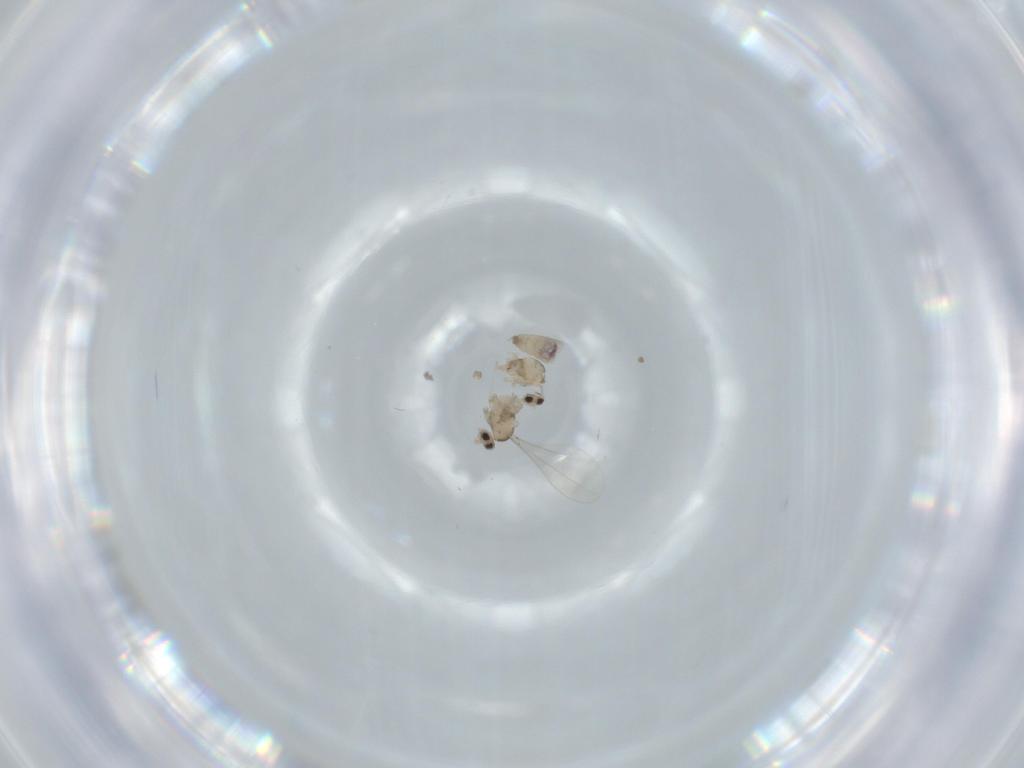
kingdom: Animalia
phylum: Arthropoda
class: Insecta
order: Diptera
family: Cecidomyiidae
